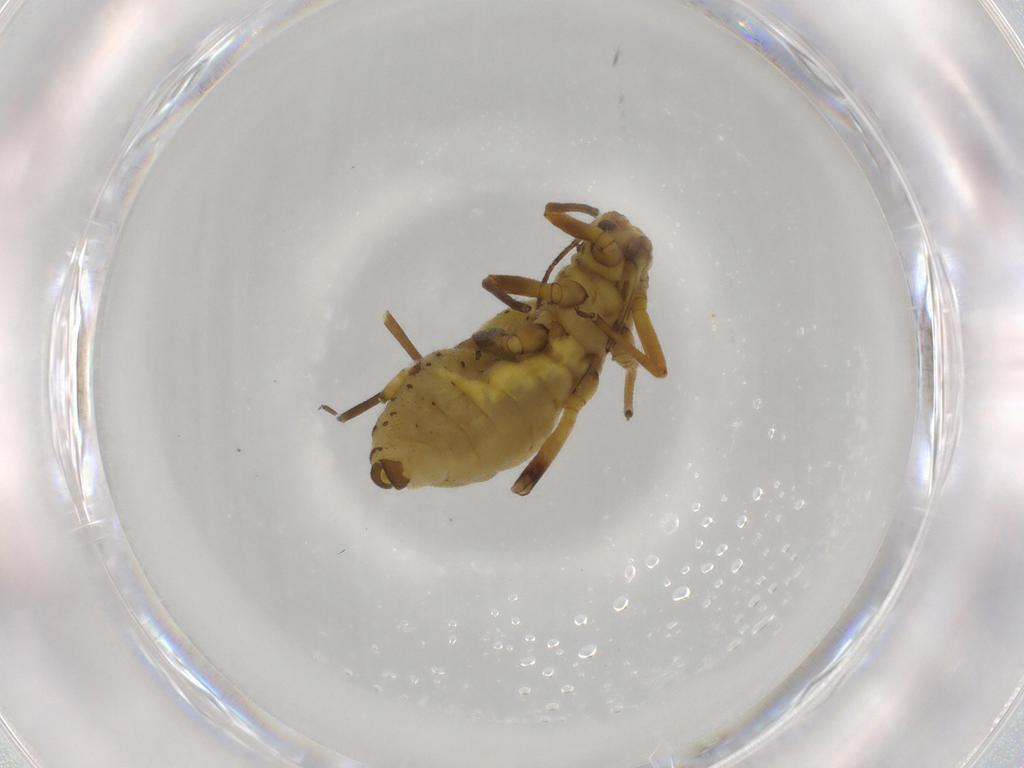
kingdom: Animalia
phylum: Arthropoda
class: Insecta
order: Hemiptera
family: Aphididae
